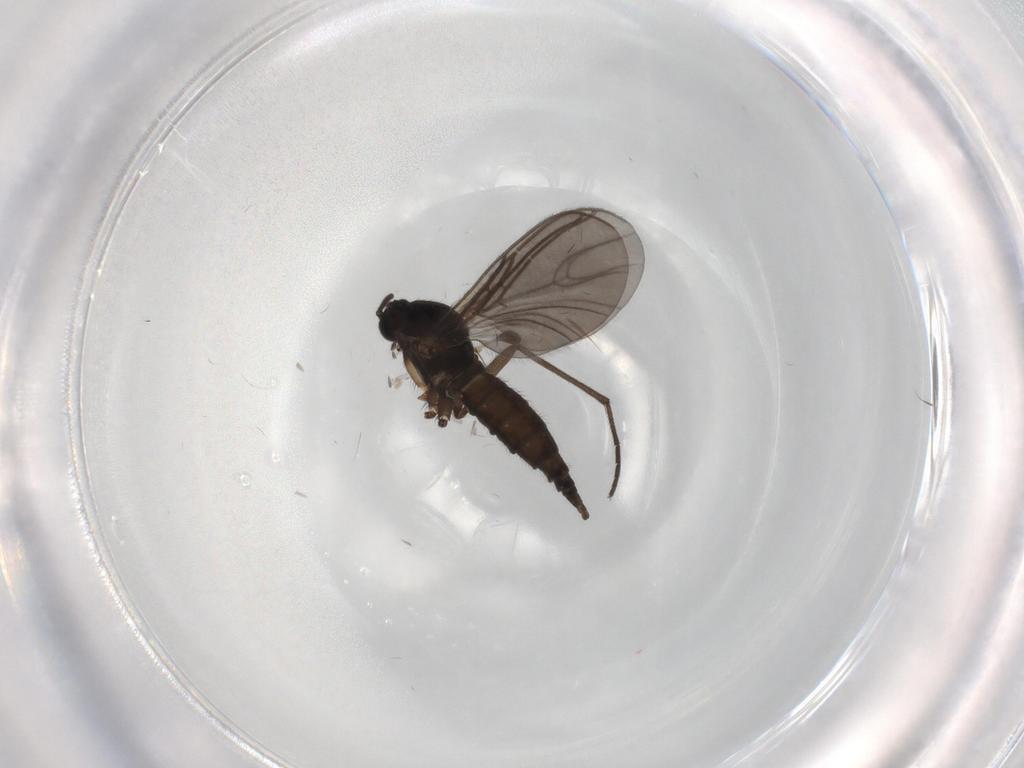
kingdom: Animalia
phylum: Arthropoda
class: Insecta
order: Diptera
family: Sciaridae
